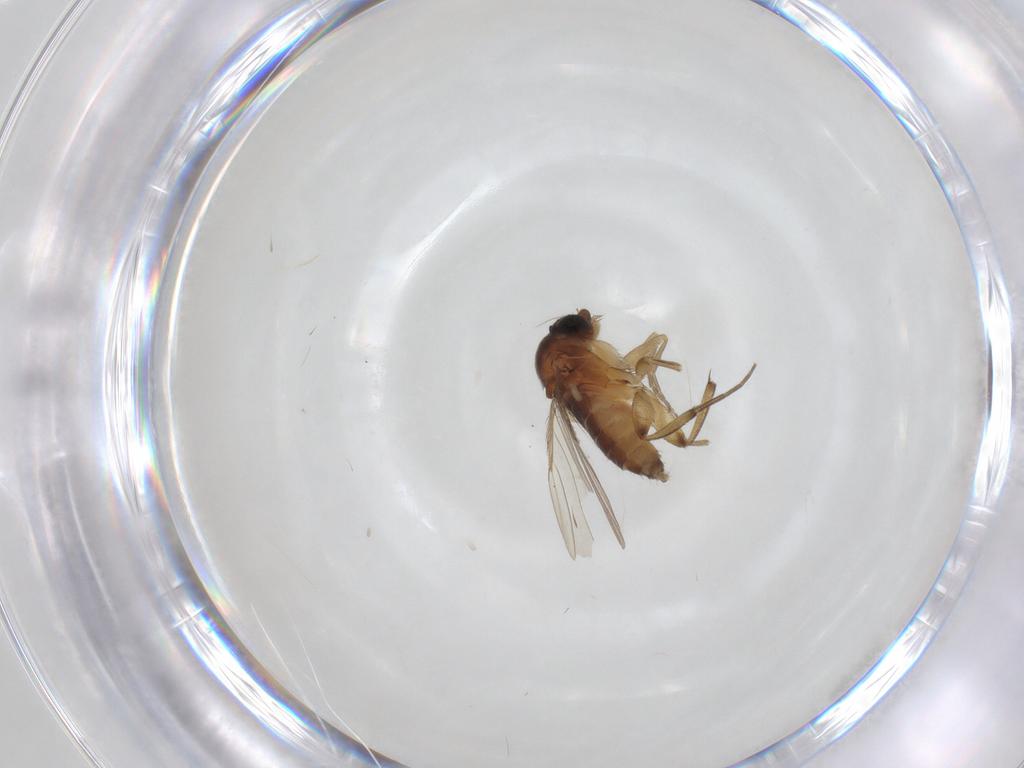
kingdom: Animalia
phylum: Arthropoda
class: Insecta
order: Diptera
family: Phoridae
